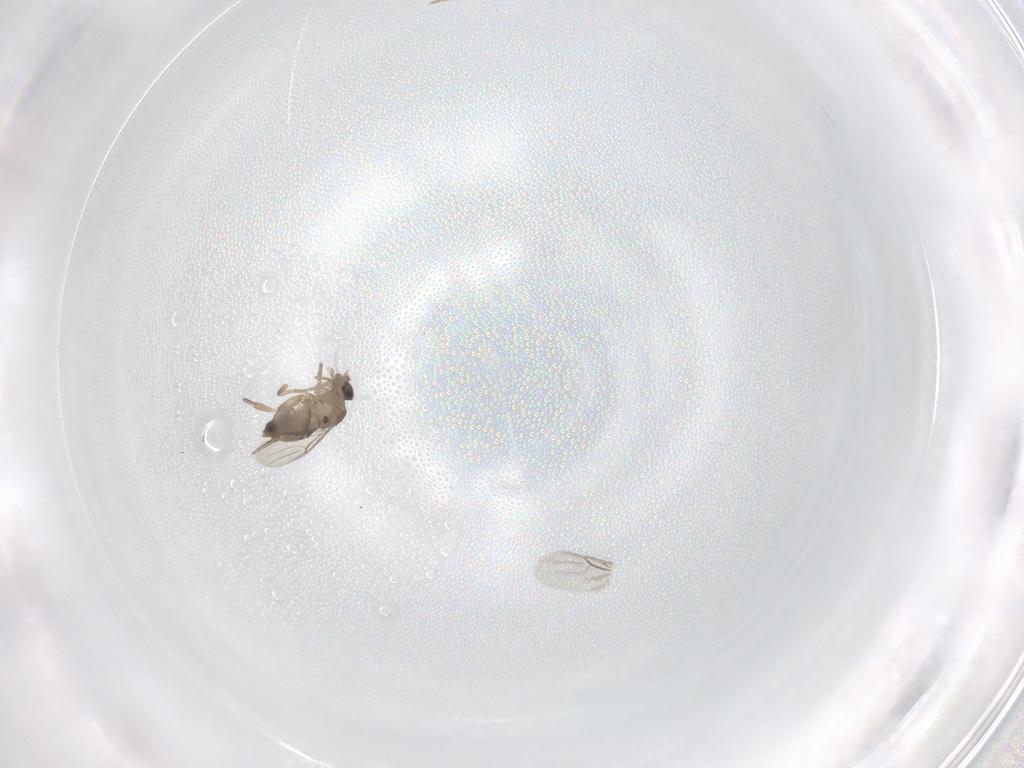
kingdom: Animalia
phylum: Arthropoda
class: Insecta
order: Diptera
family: Phoridae
